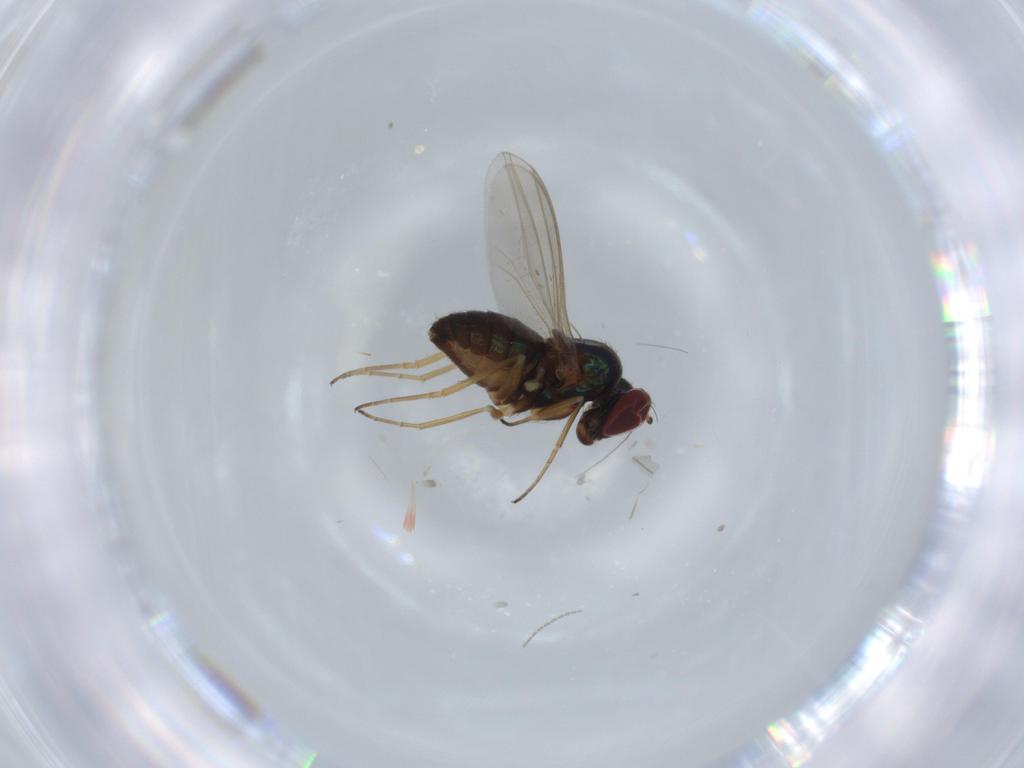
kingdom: Animalia
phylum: Arthropoda
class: Insecta
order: Diptera
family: Dolichopodidae
